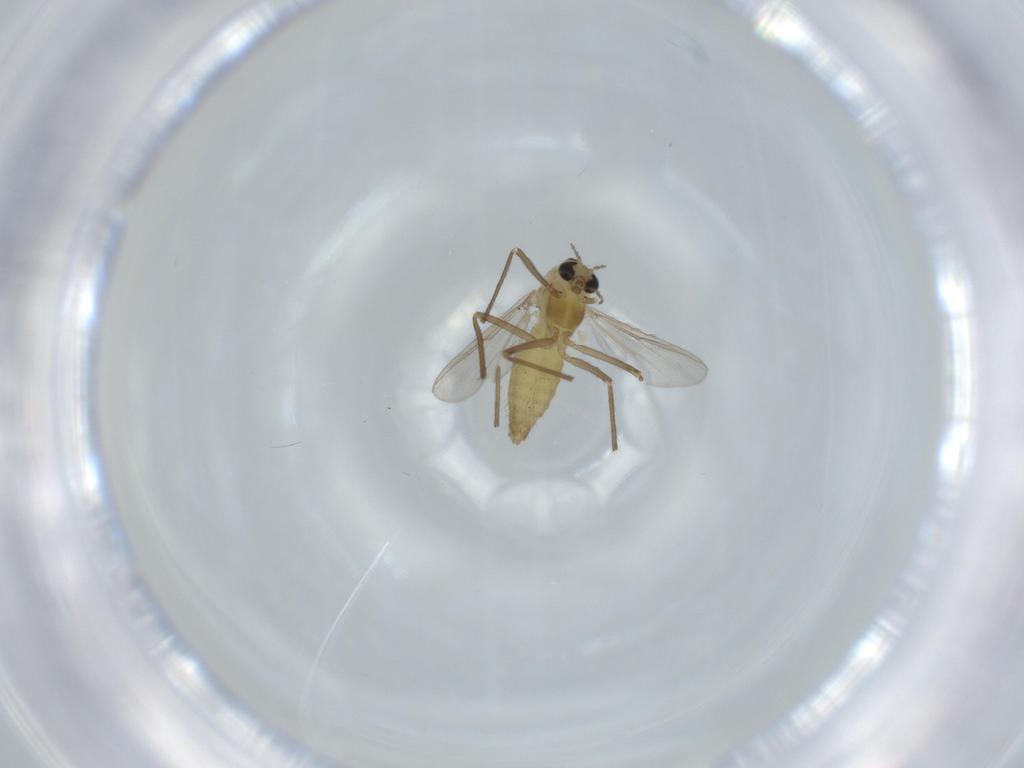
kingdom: Animalia
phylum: Arthropoda
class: Insecta
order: Diptera
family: Chironomidae
